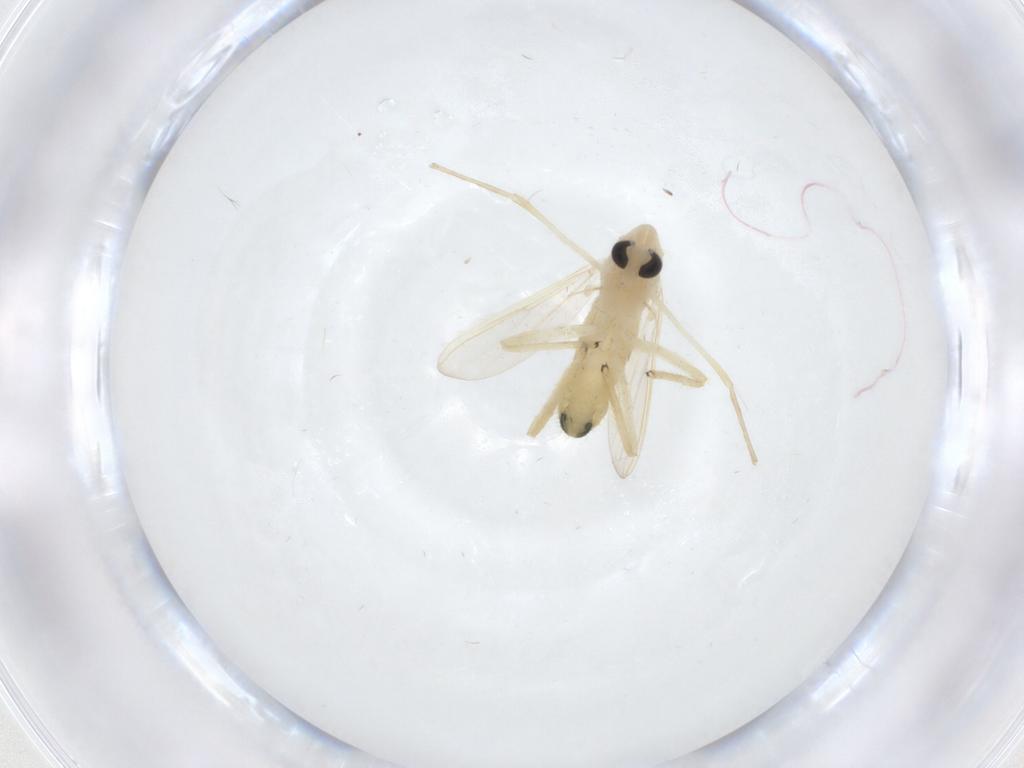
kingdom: Animalia
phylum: Arthropoda
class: Insecta
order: Diptera
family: Chironomidae
